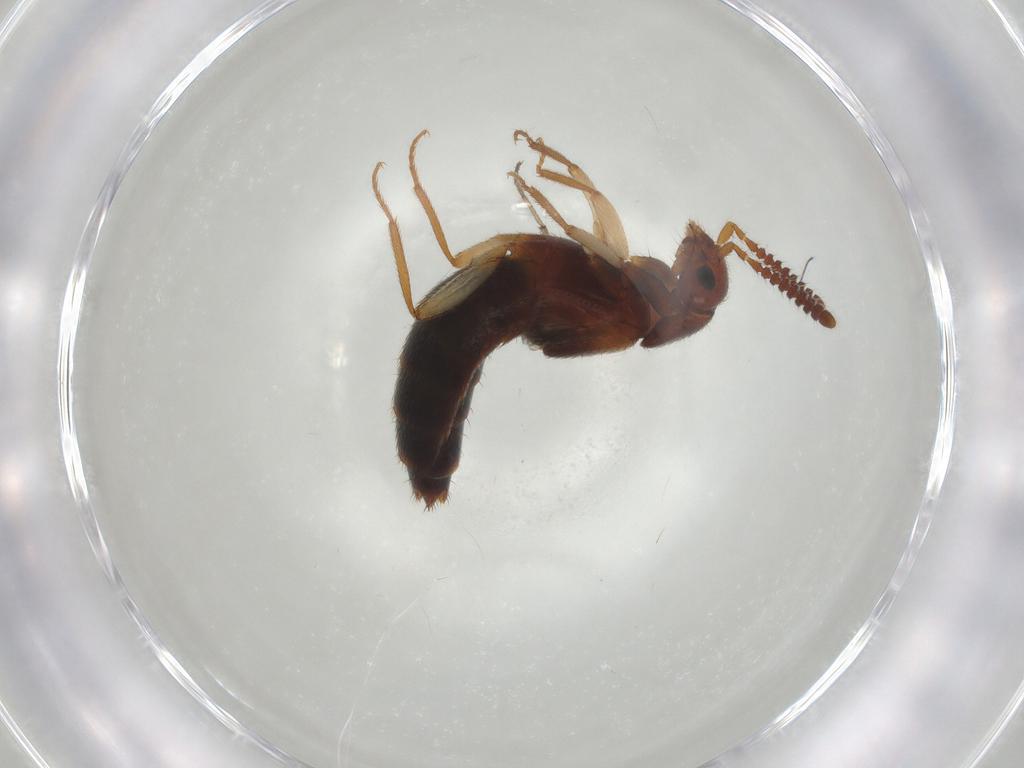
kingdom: Animalia
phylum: Arthropoda
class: Insecta
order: Coleoptera
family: Staphylinidae
